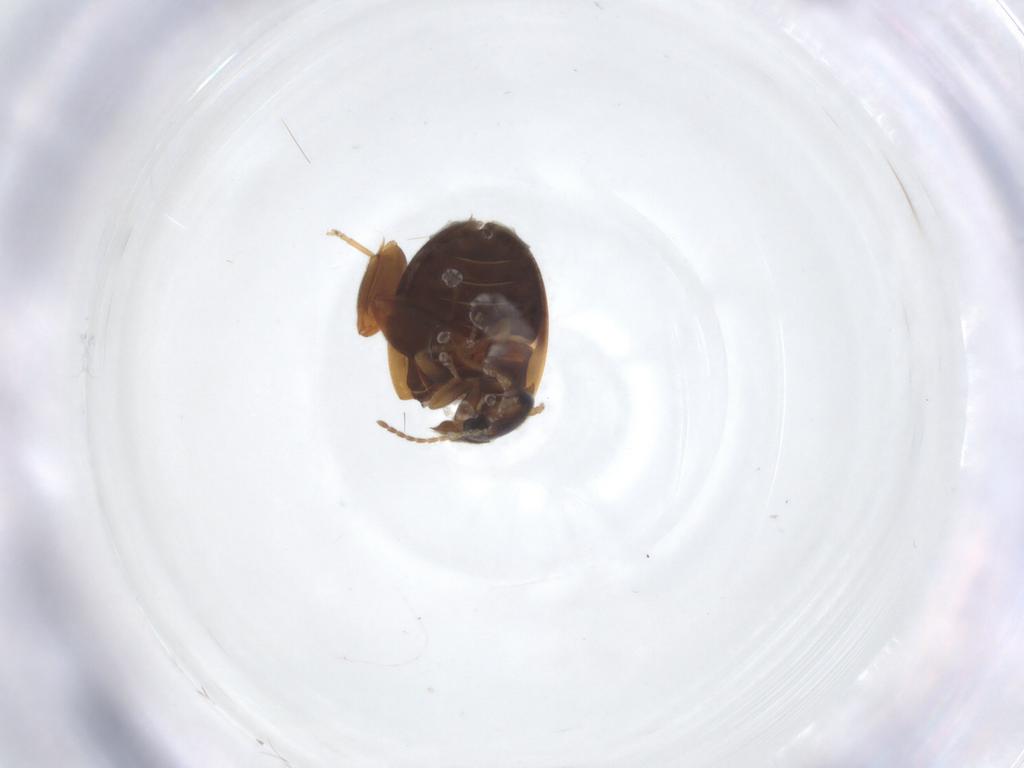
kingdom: Animalia
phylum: Arthropoda
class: Insecta
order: Coleoptera
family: Scirtidae
